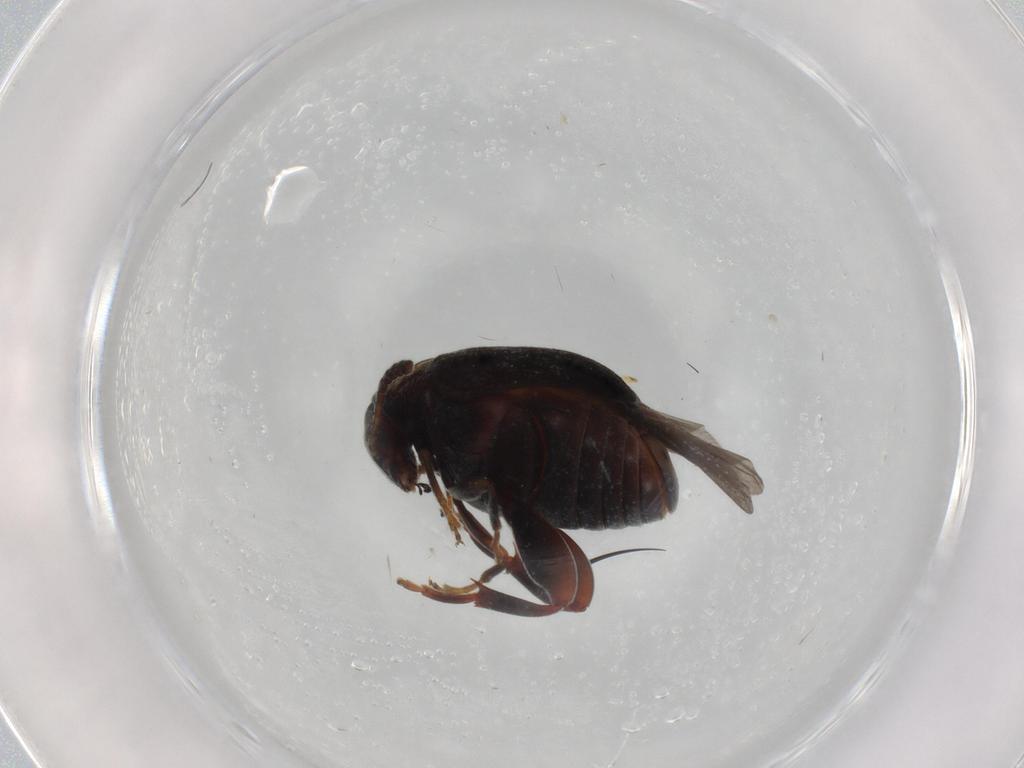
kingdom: Animalia
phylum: Arthropoda
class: Insecta
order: Coleoptera
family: Chrysomelidae
